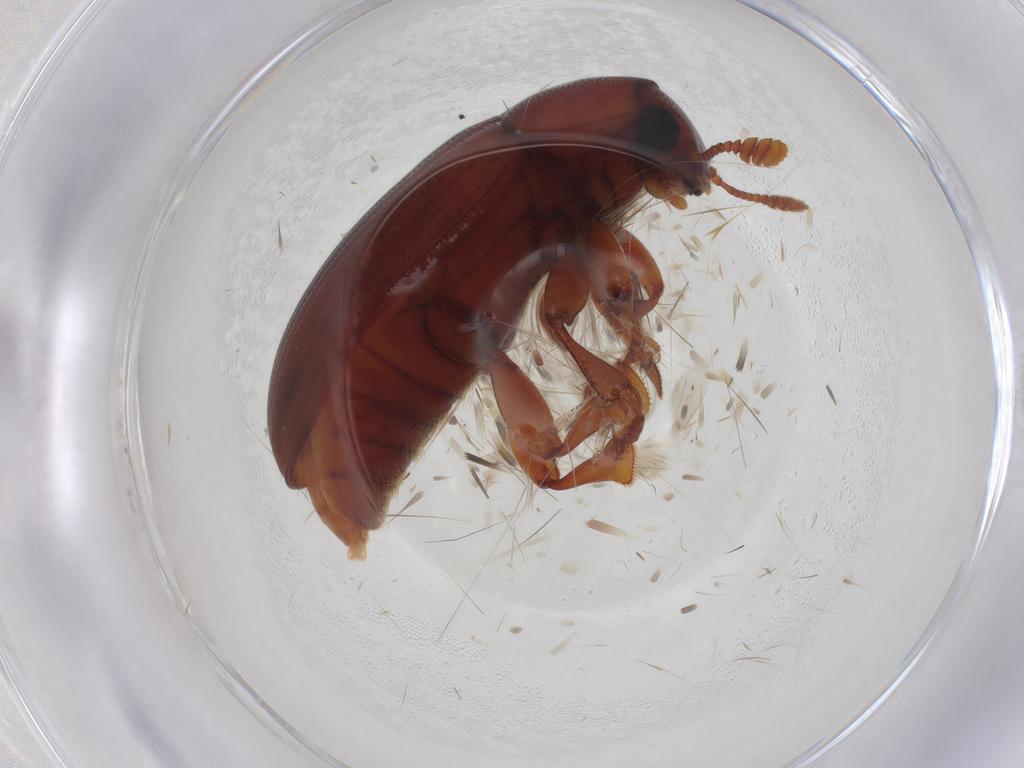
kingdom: Animalia
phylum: Arthropoda
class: Insecta
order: Coleoptera
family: Erotylidae
